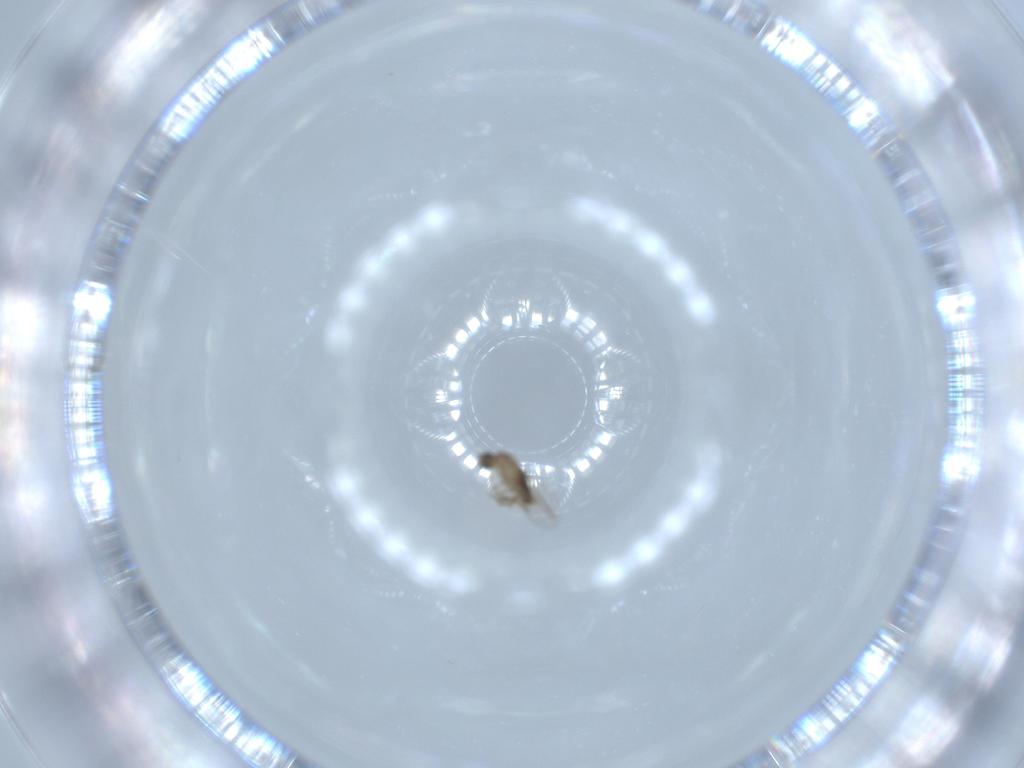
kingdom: Animalia
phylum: Arthropoda
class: Insecta
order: Diptera
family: Phoridae
